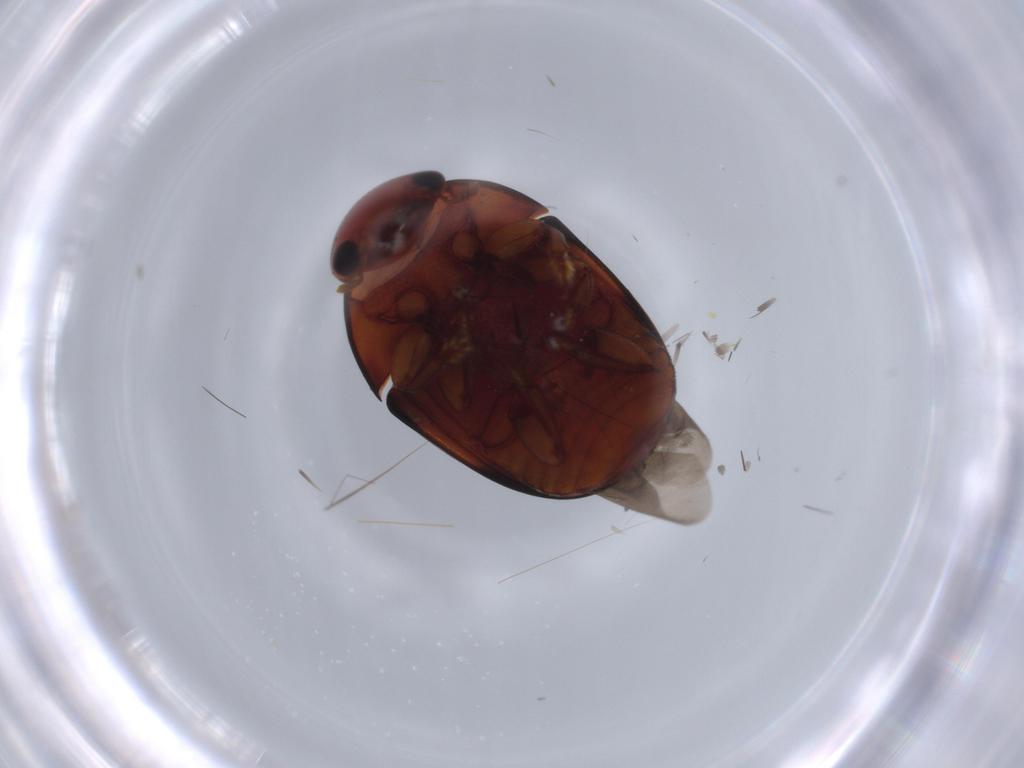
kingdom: Animalia
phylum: Arthropoda
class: Insecta
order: Coleoptera
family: Nitidulidae
